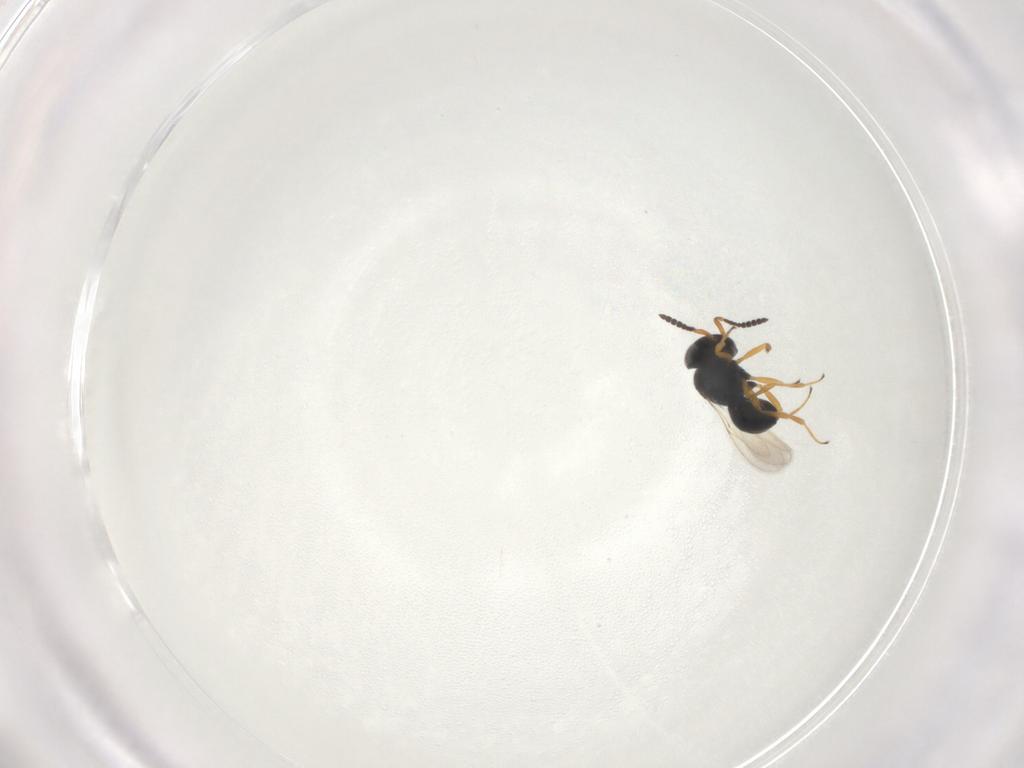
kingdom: Animalia
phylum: Arthropoda
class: Insecta
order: Hymenoptera
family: Scelionidae
